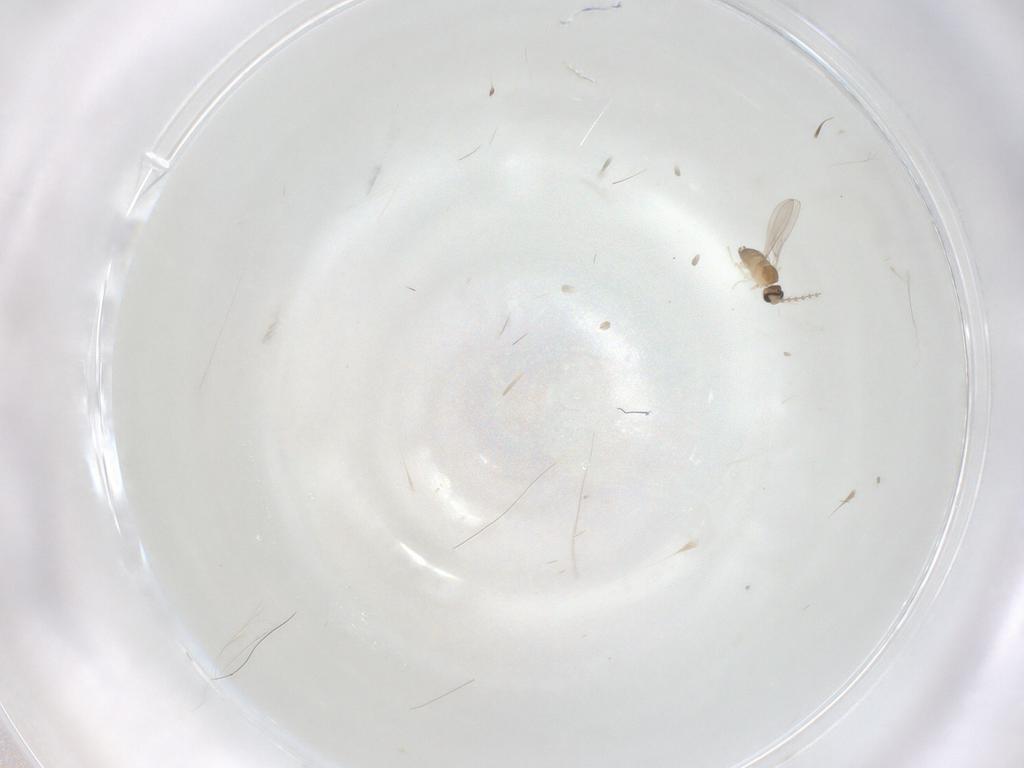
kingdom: Animalia
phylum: Arthropoda
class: Insecta
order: Diptera
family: Cecidomyiidae
